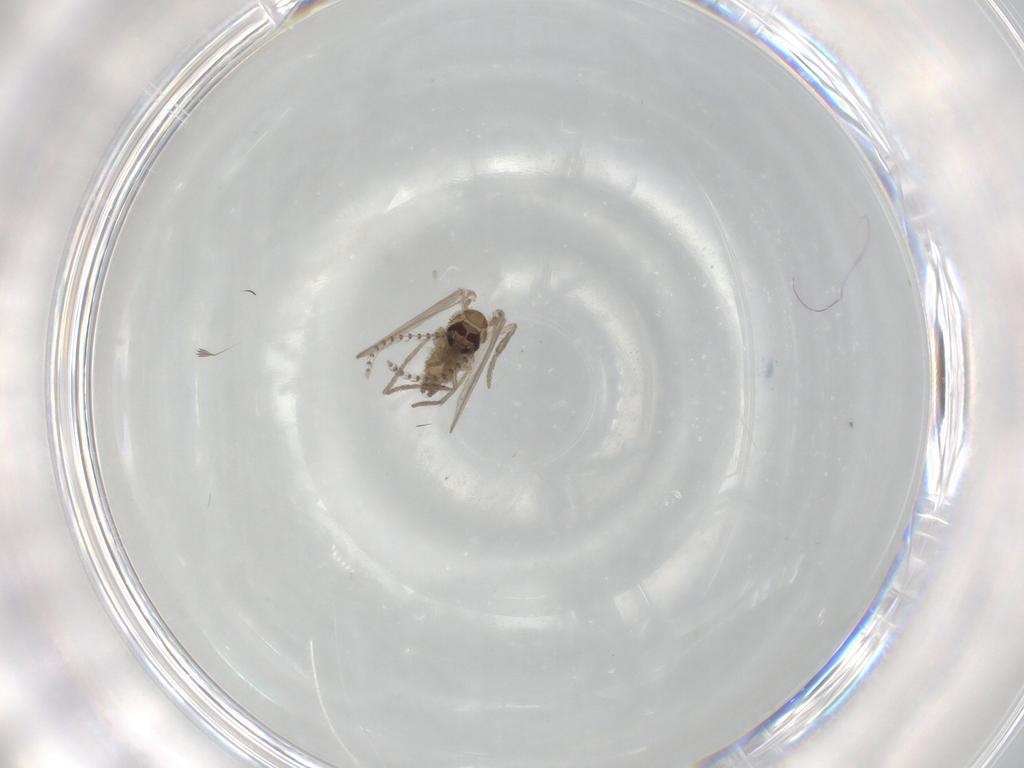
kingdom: Animalia
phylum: Arthropoda
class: Insecta
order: Diptera
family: Psychodidae
